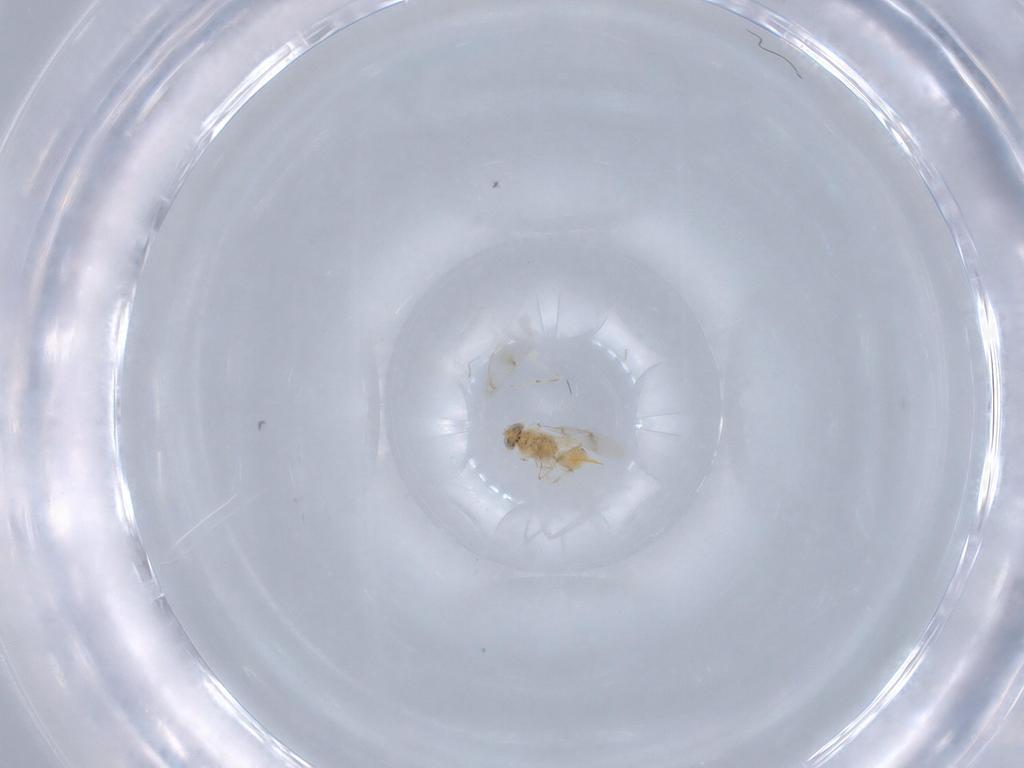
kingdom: Animalia
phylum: Arthropoda
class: Insecta
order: Hymenoptera
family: Aphelinidae
